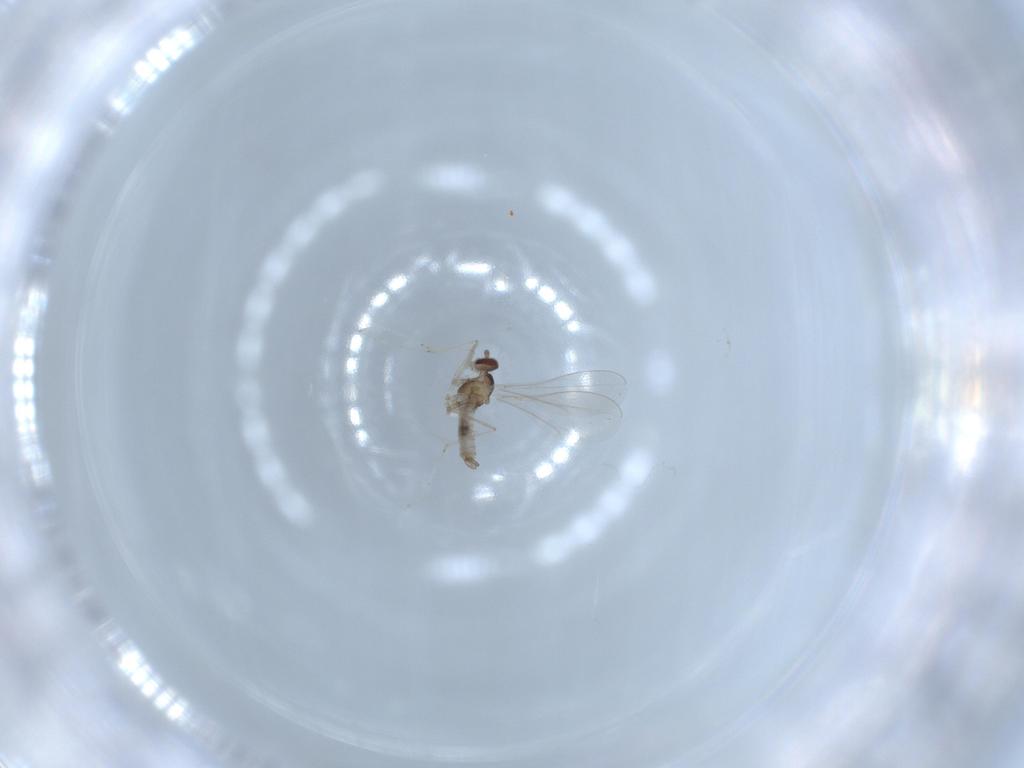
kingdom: Animalia
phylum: Arthropoda
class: Insecta
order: Diptera
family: Cecidomyiidae
